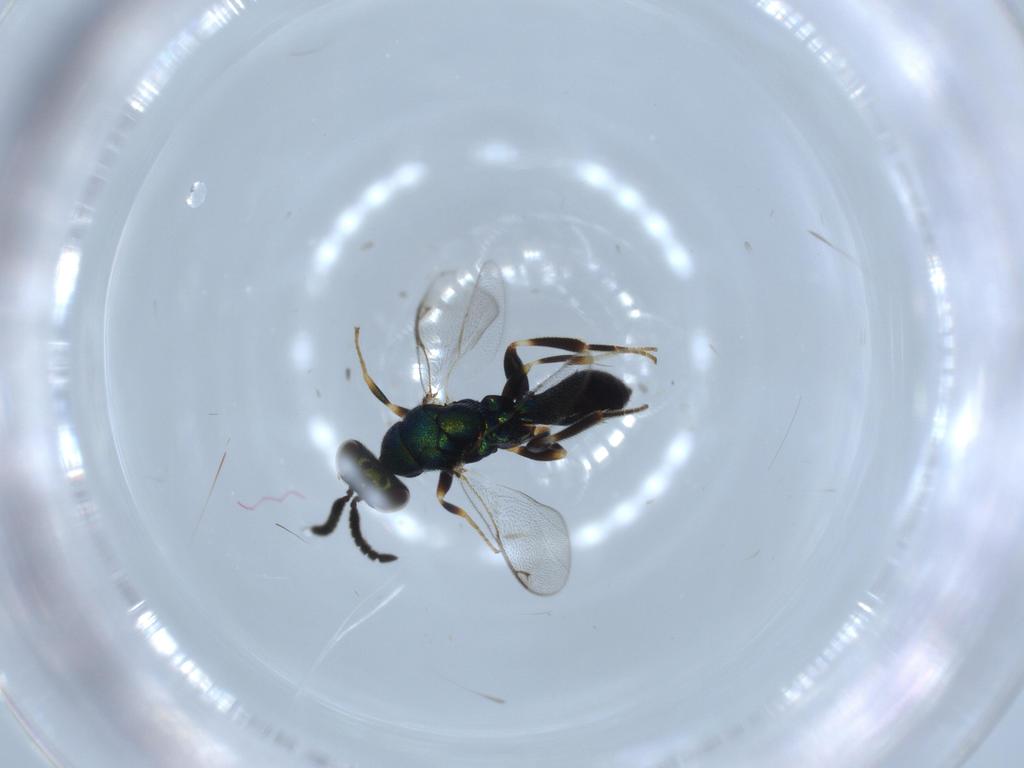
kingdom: Animalia
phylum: Arthropoda
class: Insecta
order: Hymenoptera
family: Cleonyminae
